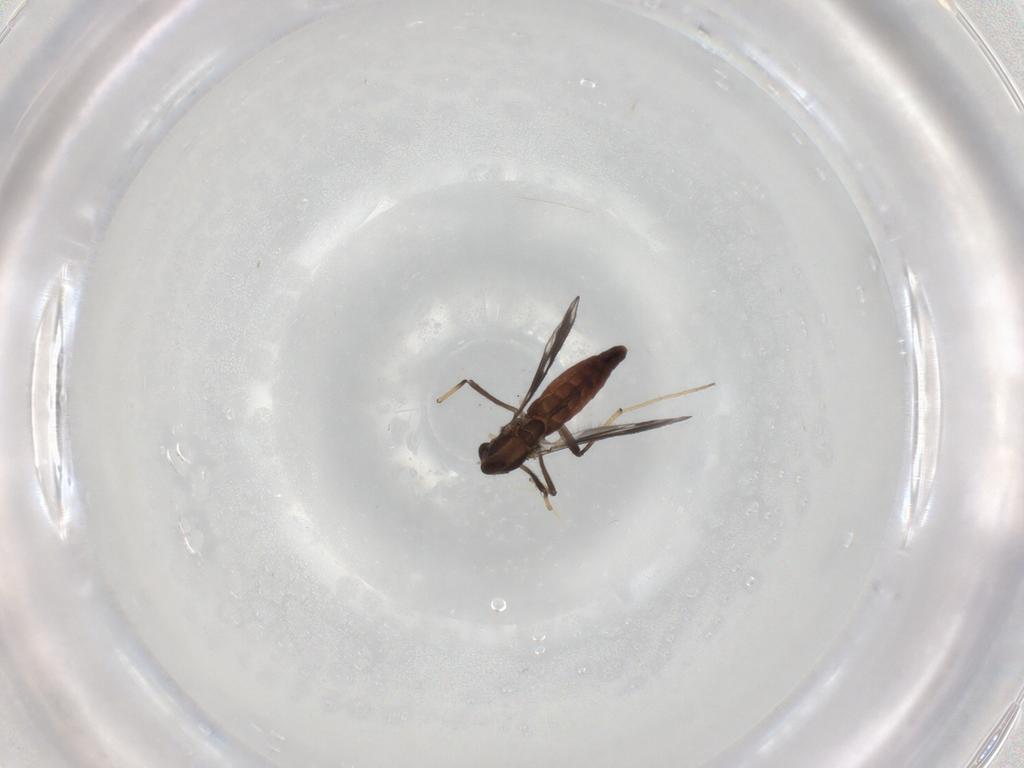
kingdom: Animalia
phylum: Arthropoda
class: Insecta
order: Diptera
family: Chironomidae
